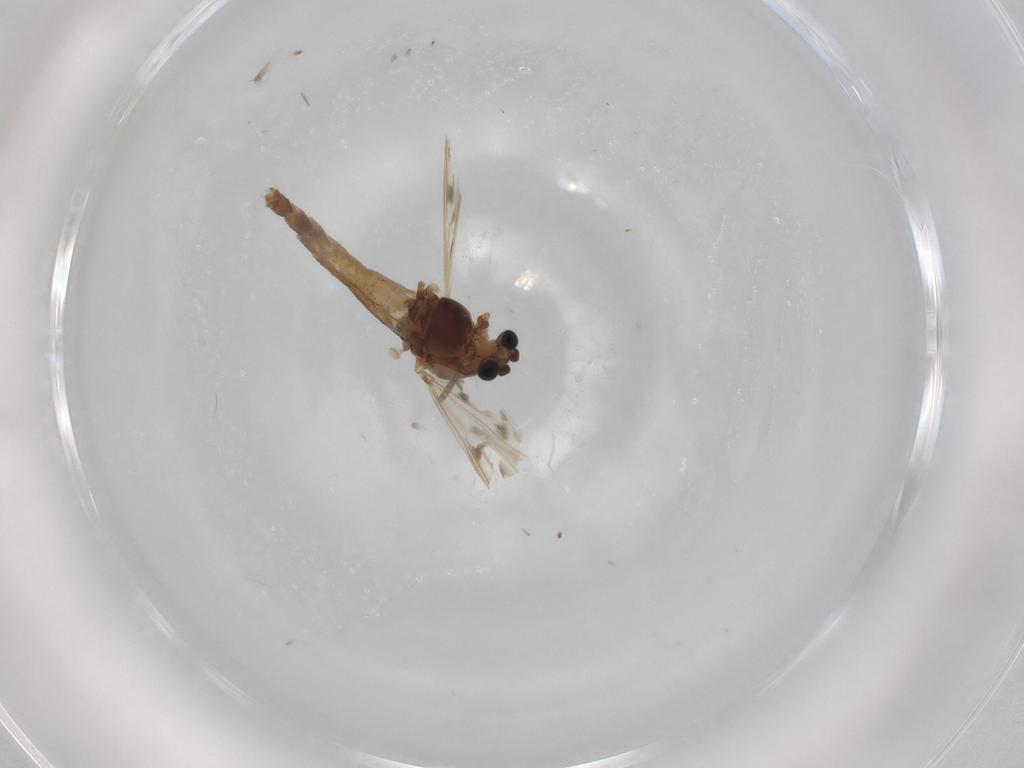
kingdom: Animalia
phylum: Arthropoda
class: Insecta
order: Diptera
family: Chironomidae
